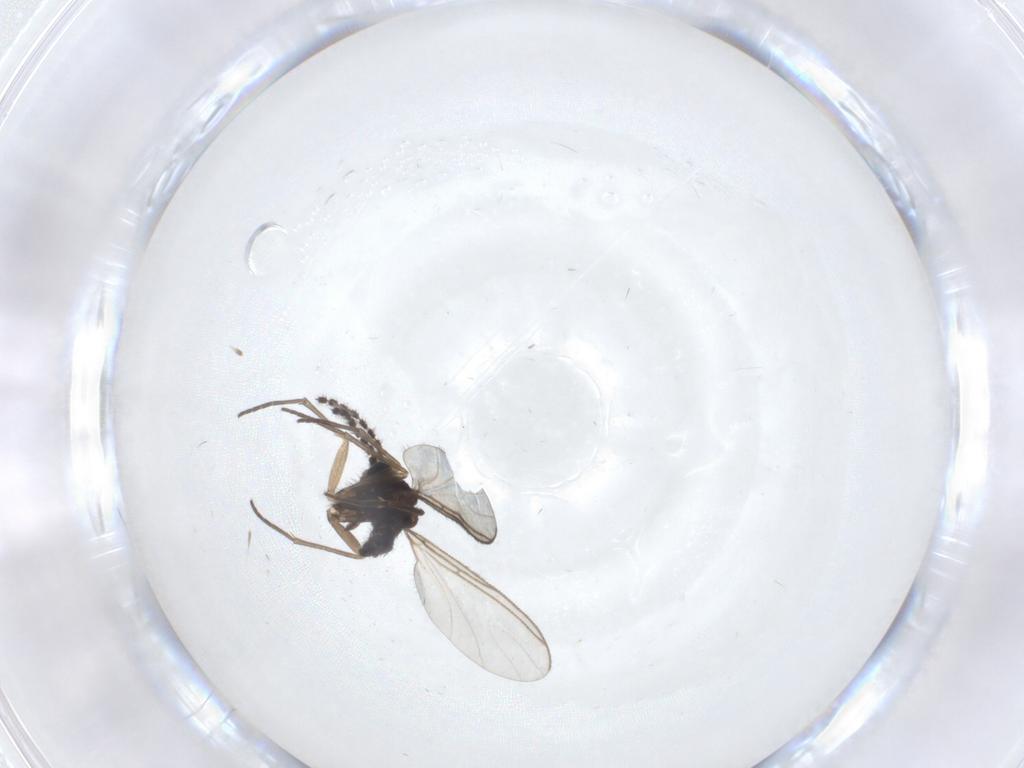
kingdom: Animalia
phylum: Arthropoda
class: Insecta
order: Diptera
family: Sciaridae
